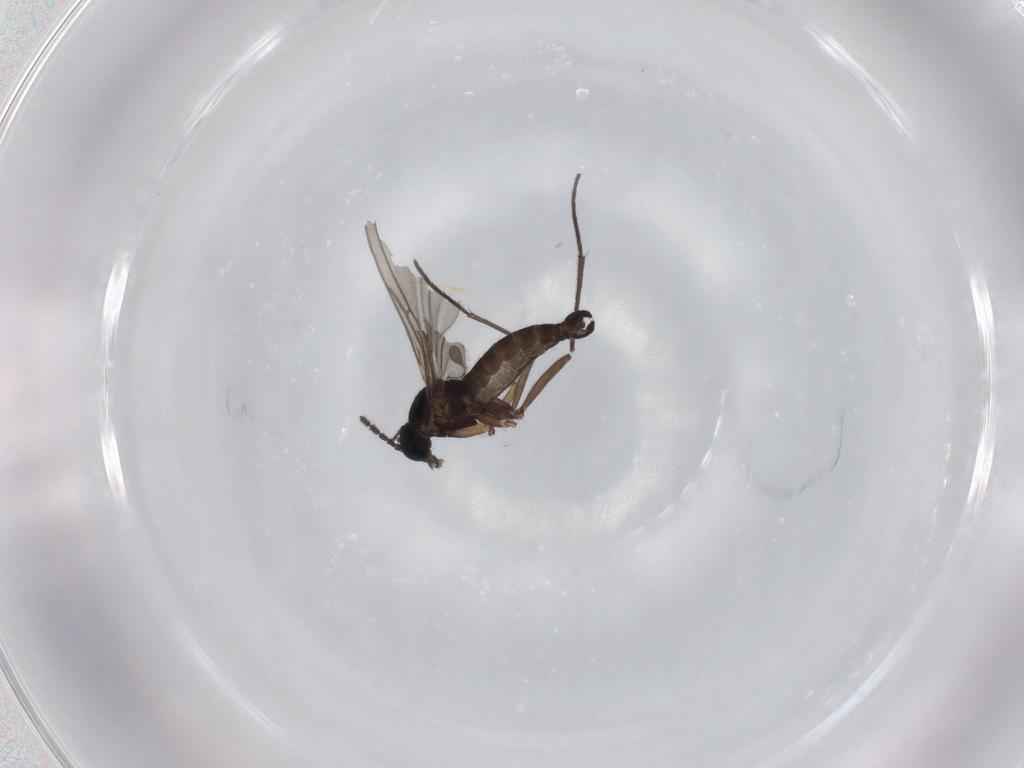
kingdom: Animalia
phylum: Arthropoda
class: Insecta
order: Diptera
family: Sciaridae
